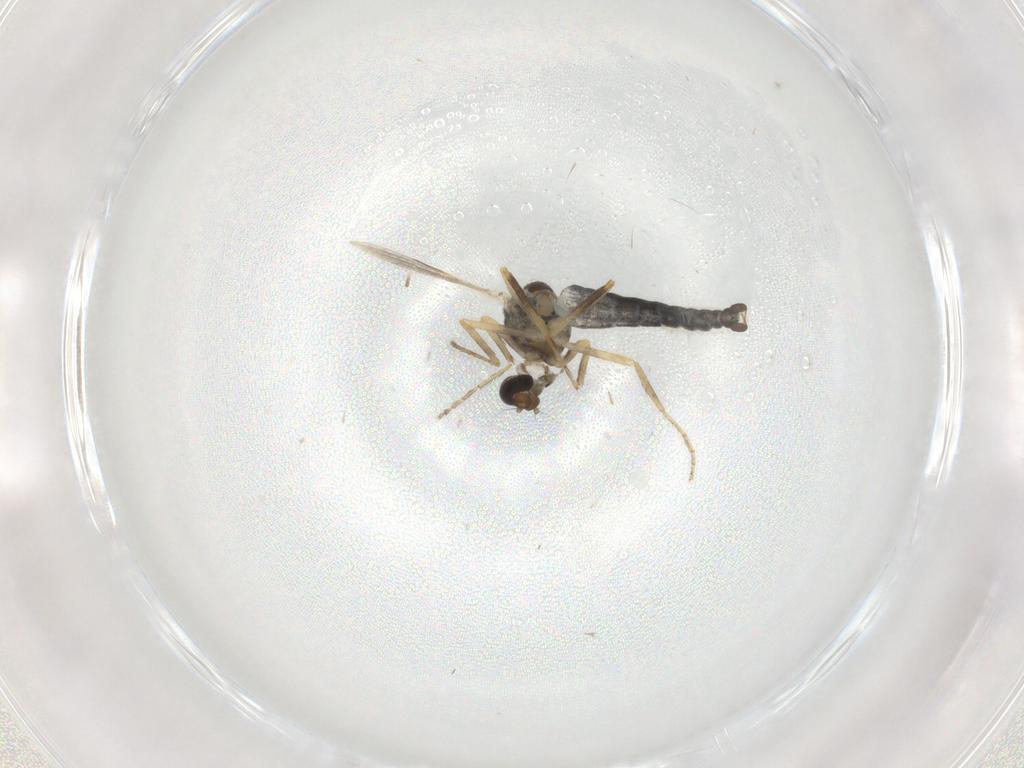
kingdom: Animalia
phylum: Arthropoda
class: Insecta
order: Diptera
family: Ceratopogonidae
